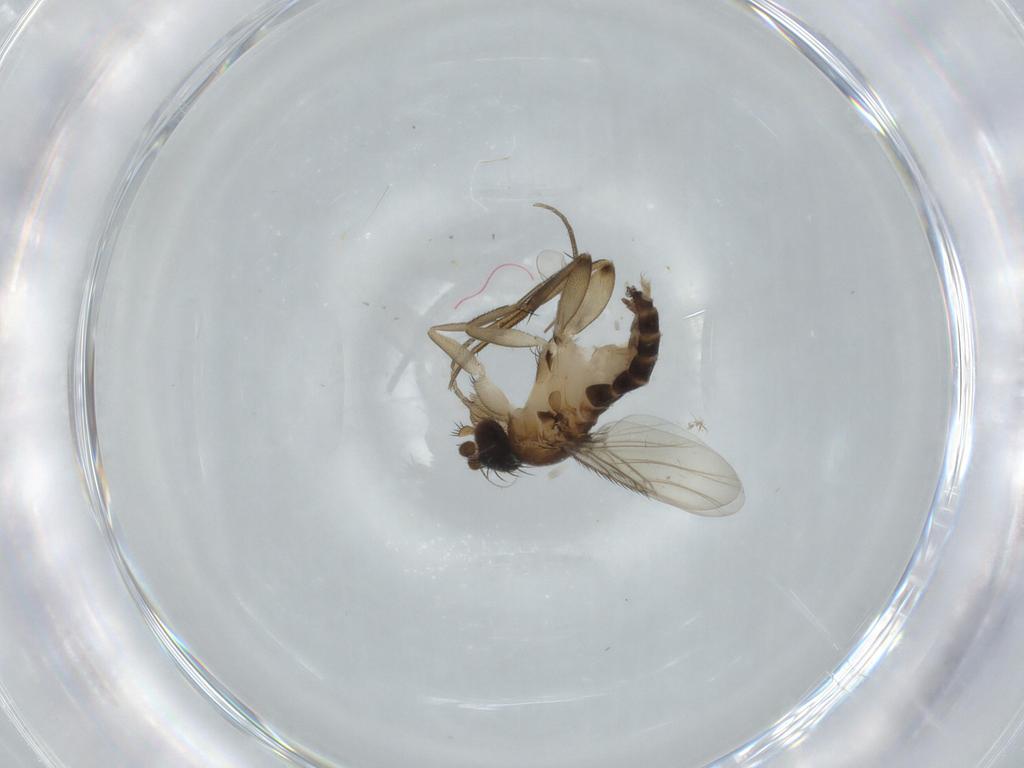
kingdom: Animalia
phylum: Arthropoda
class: Insecta
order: Diptera
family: Phoridae
